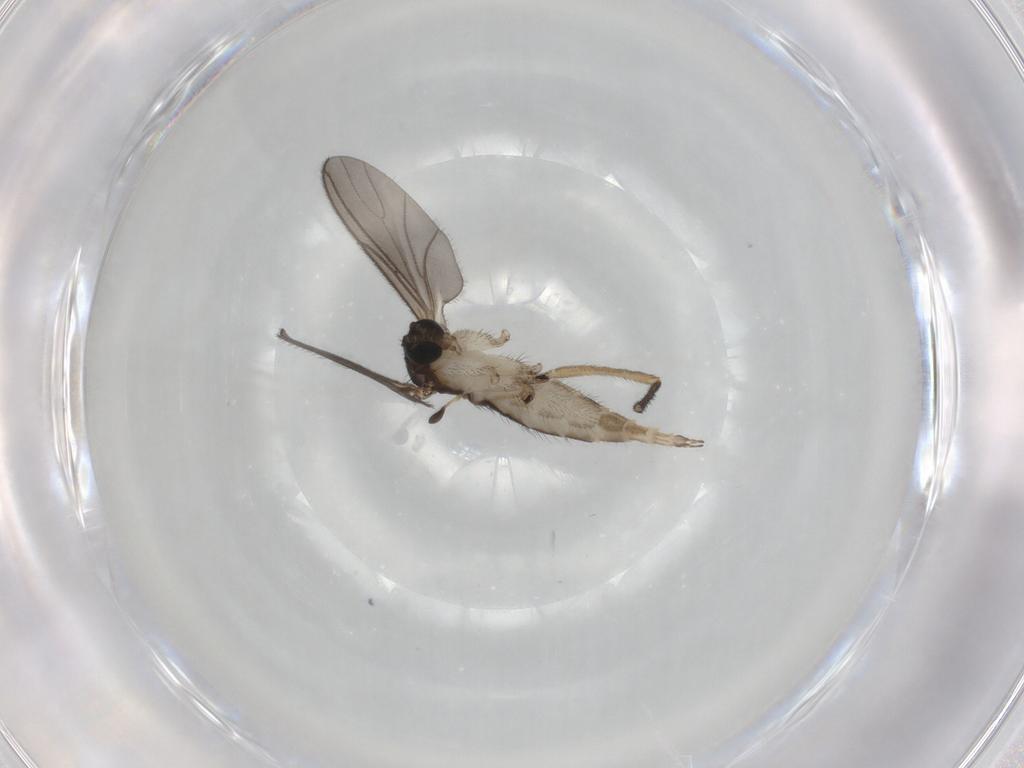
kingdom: Animalia
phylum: Arthropoda
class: Insecta
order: Diptera
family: Sciaridae
